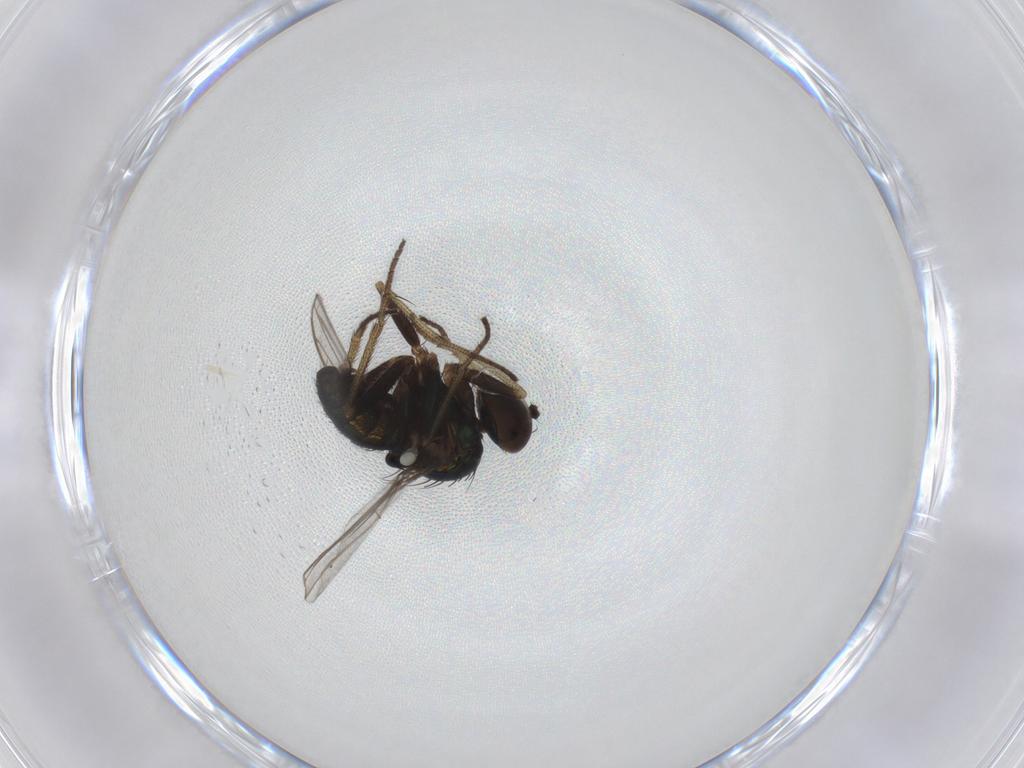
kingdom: Animalia
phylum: Arthropoda
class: Insecta
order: Diptera
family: Dolichopodidae
